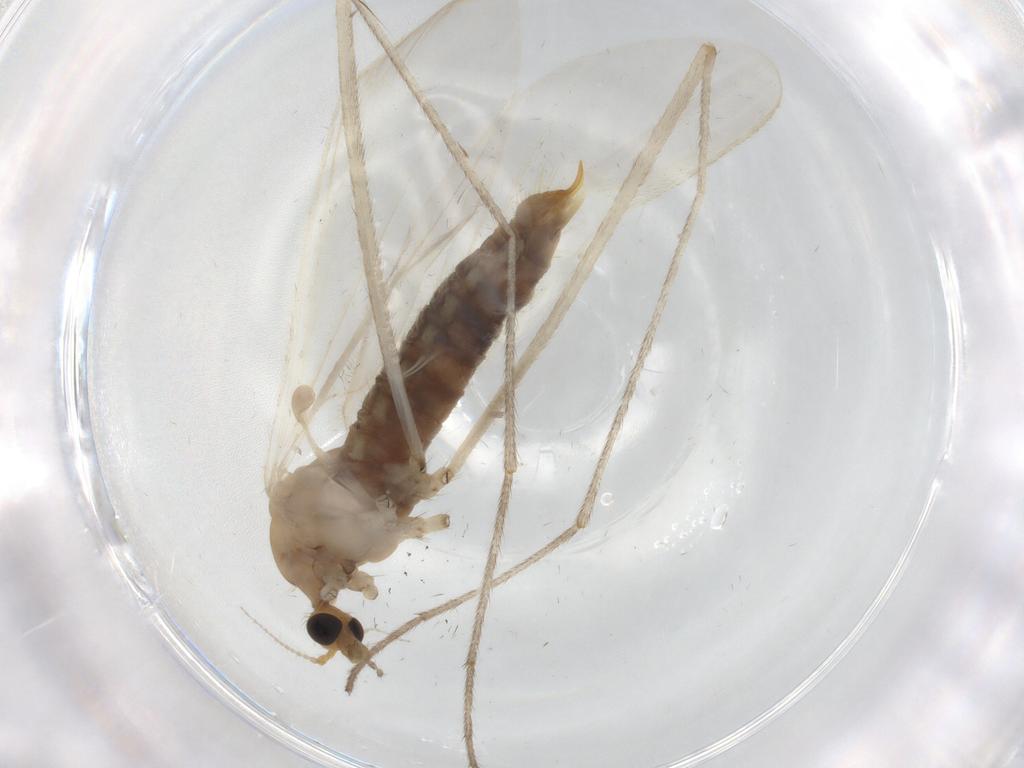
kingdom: Animalia
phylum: Arthropoda
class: Insecta
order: Diptera
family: Limoniidae
